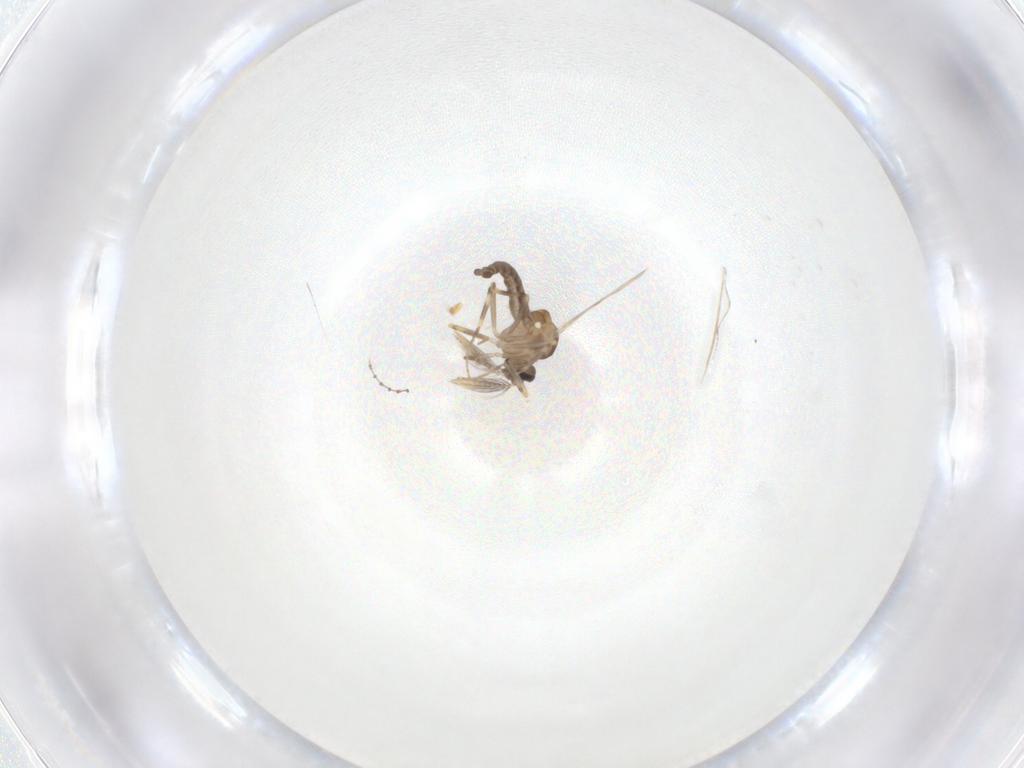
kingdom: Animalia
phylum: Arthropoda
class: Insecta
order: Diptera
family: Ceratopogonidae
